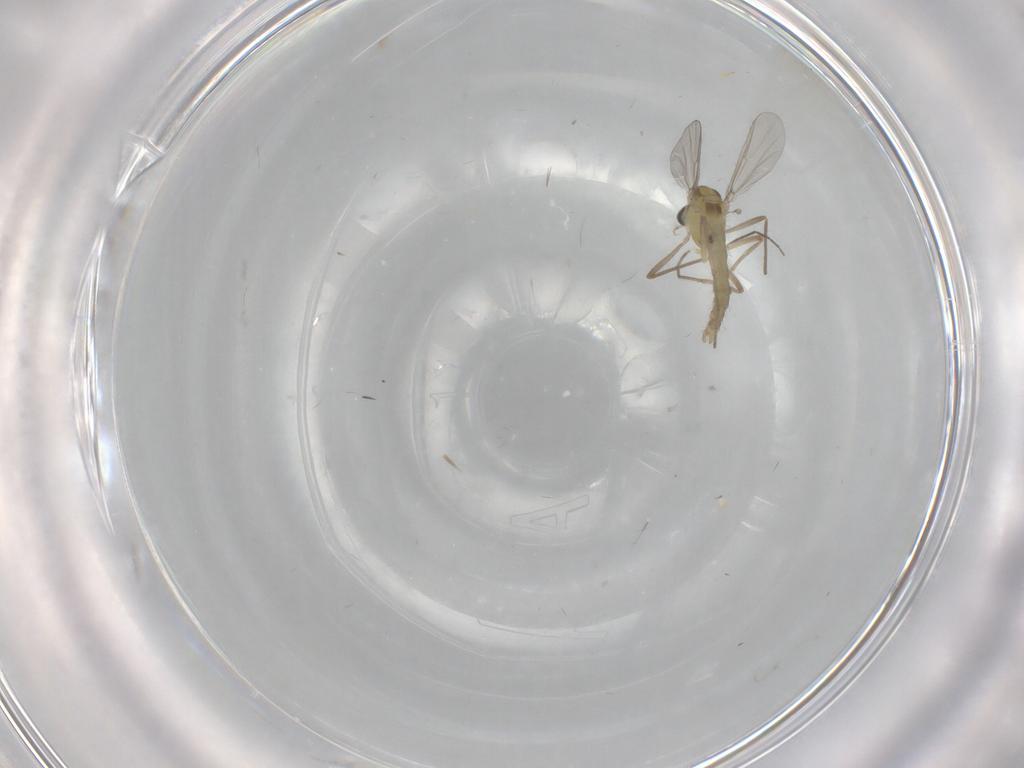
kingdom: Animalia
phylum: Arthropoda
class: Insecta
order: Diptera
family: Chironomidae
